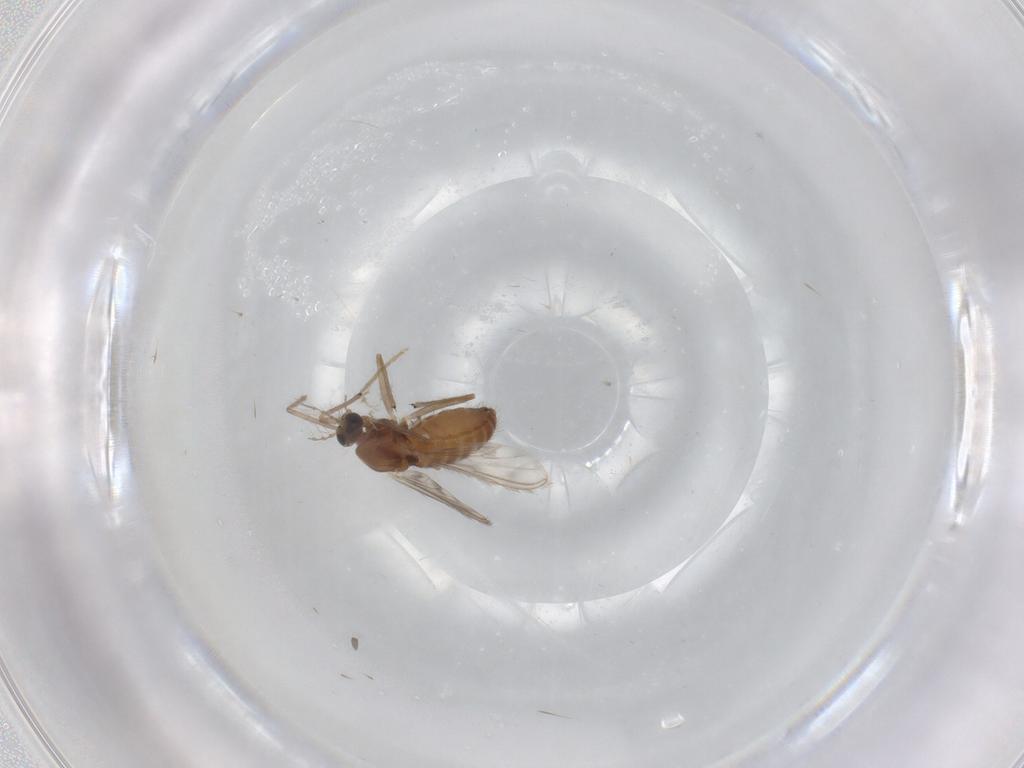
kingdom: Animalia
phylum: Arthropoda
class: Insecta
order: Diptera
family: Chironomidae
